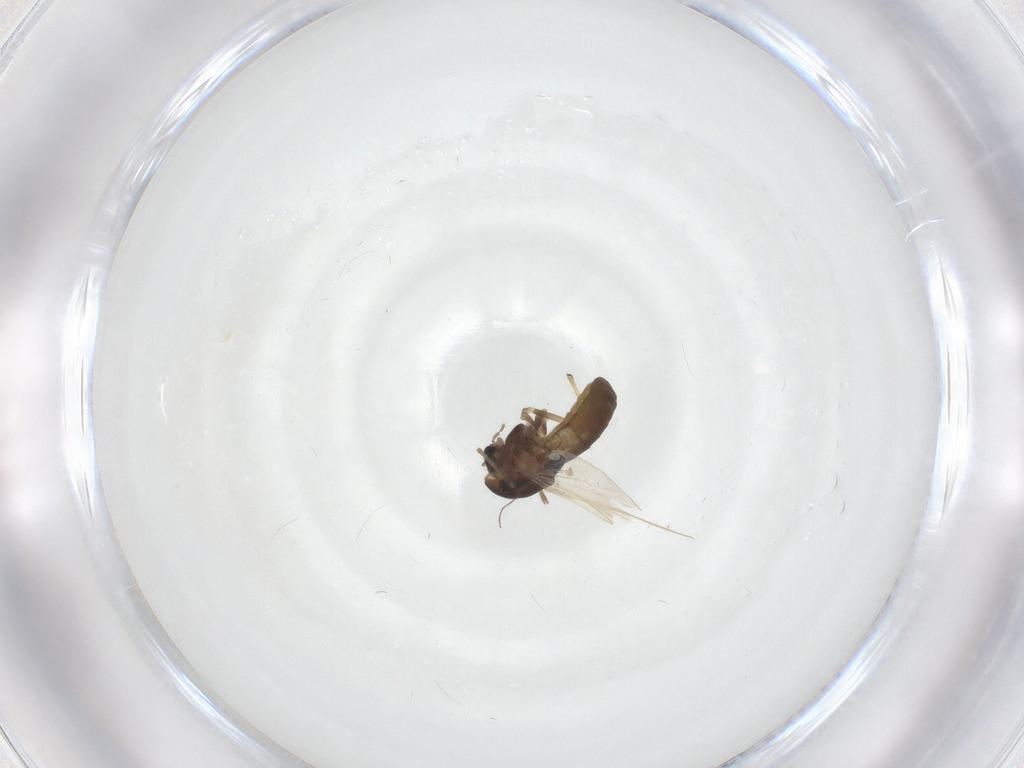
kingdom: Animalia
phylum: Arthropoda
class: Insecta
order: Diptera
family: Chironomidae
